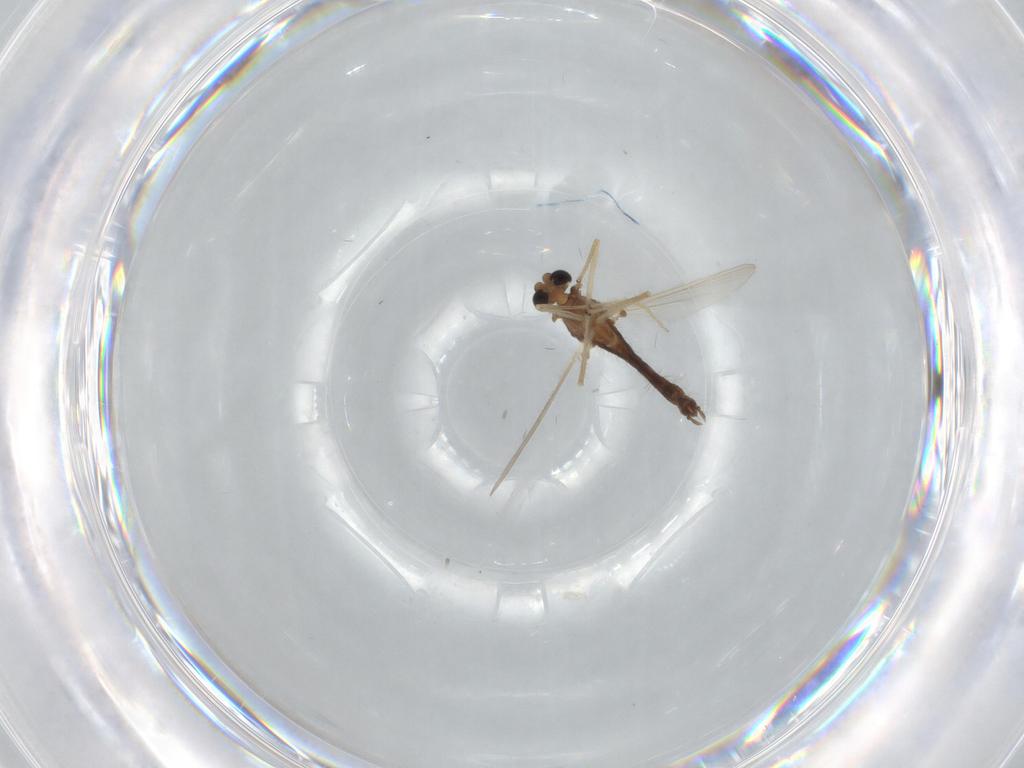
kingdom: Animalia
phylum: Arthropoda
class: Insecta
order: Diptera
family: Chironomidae
